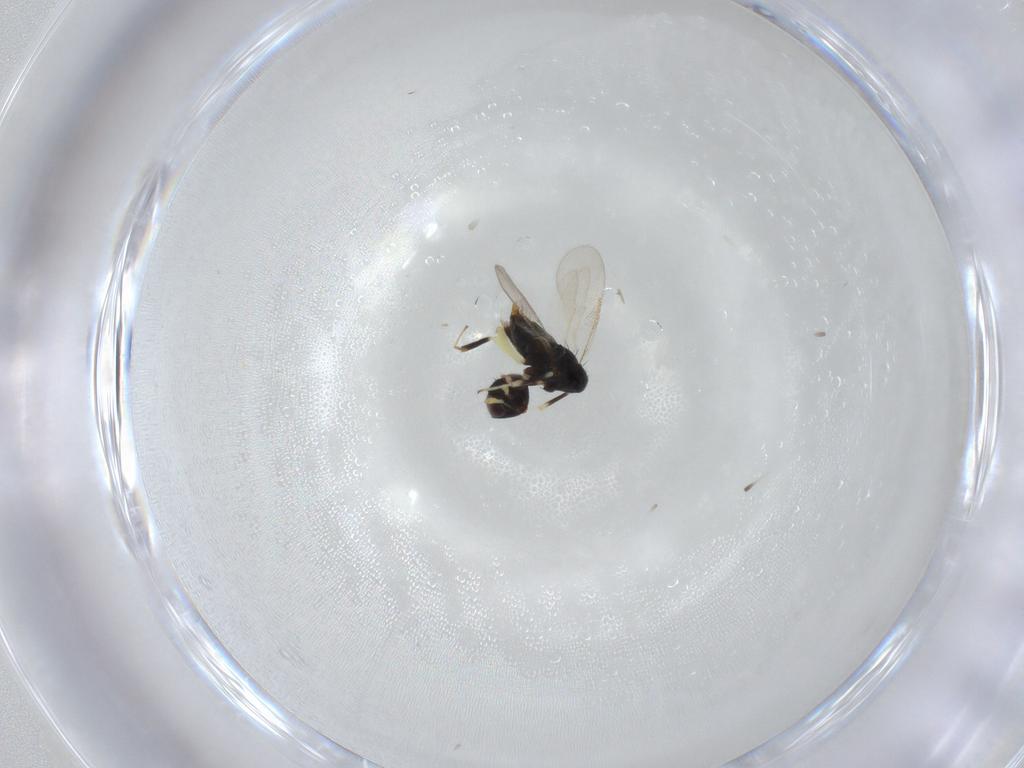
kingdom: Animalia
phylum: Arthropoda
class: Insecta
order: Hymenoptera
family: Aphelinidae
